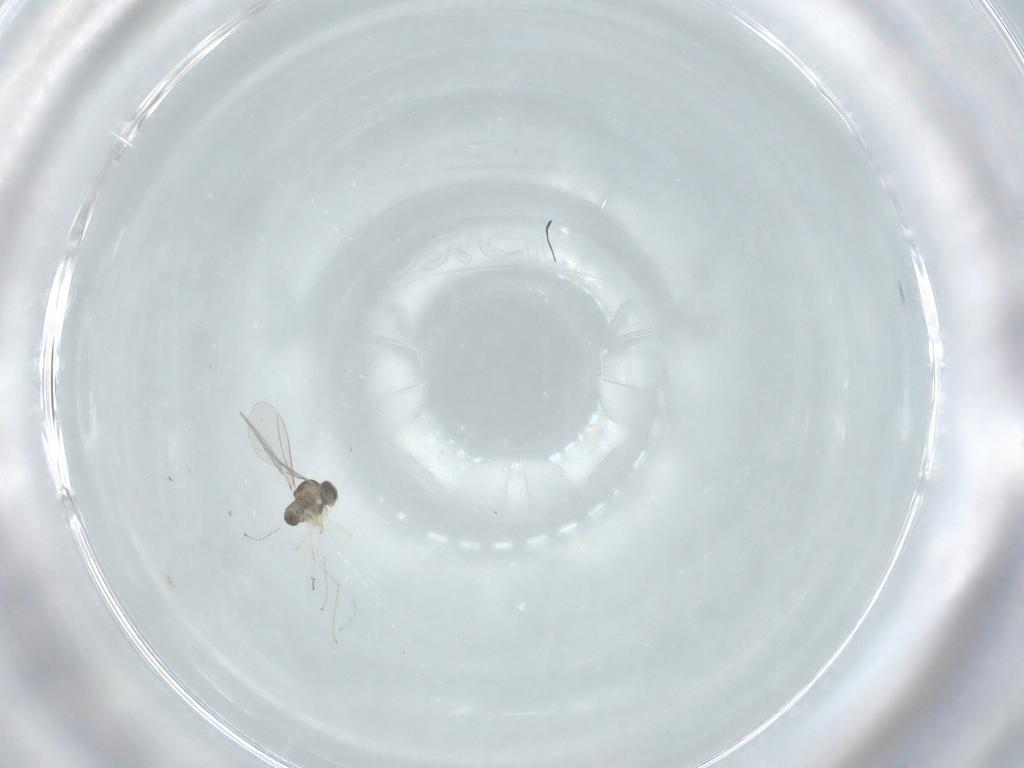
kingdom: Animalia
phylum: Arthropoda
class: Insecta
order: Diptera
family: Cecidomyiidae
